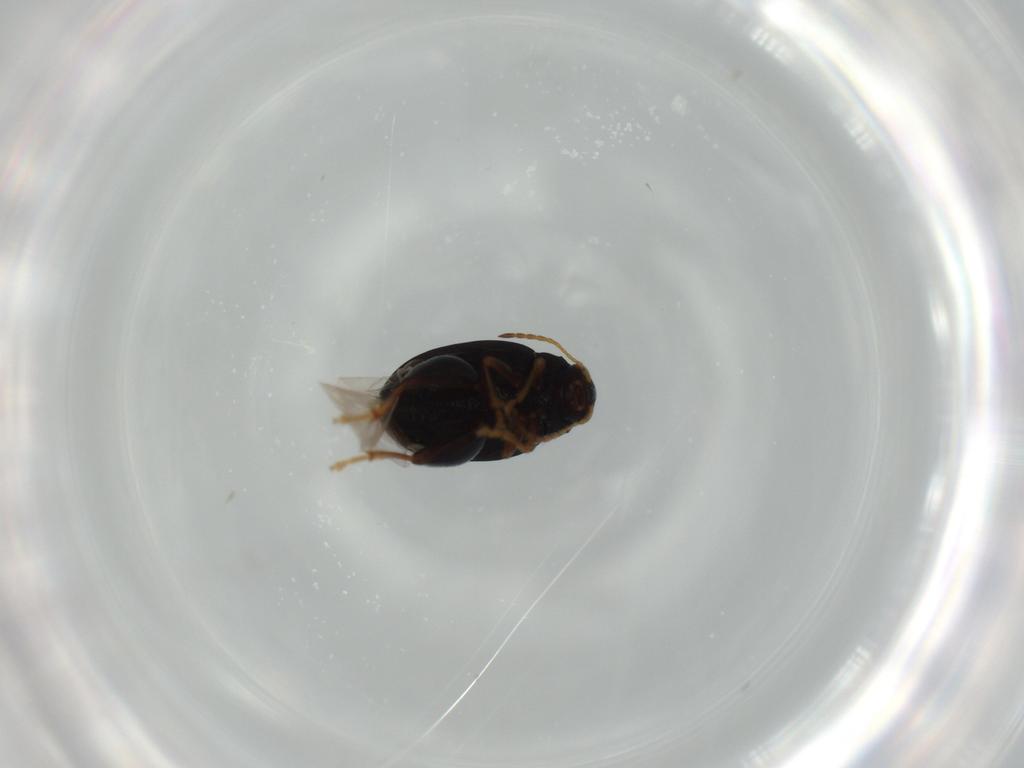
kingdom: Animalia
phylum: Arthropoda
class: Insecta
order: Coleoptera
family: Chrysomelidae
